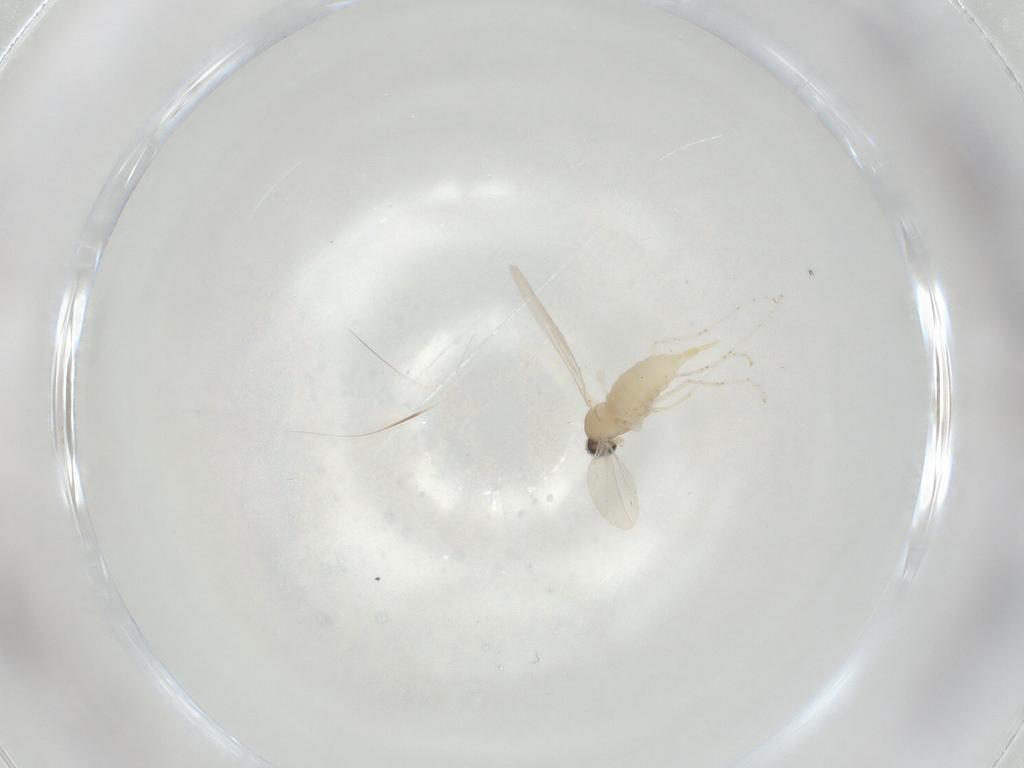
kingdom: Animalia
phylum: Arthropoda
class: Insecta
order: Diptera
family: Cecidomyiidae
